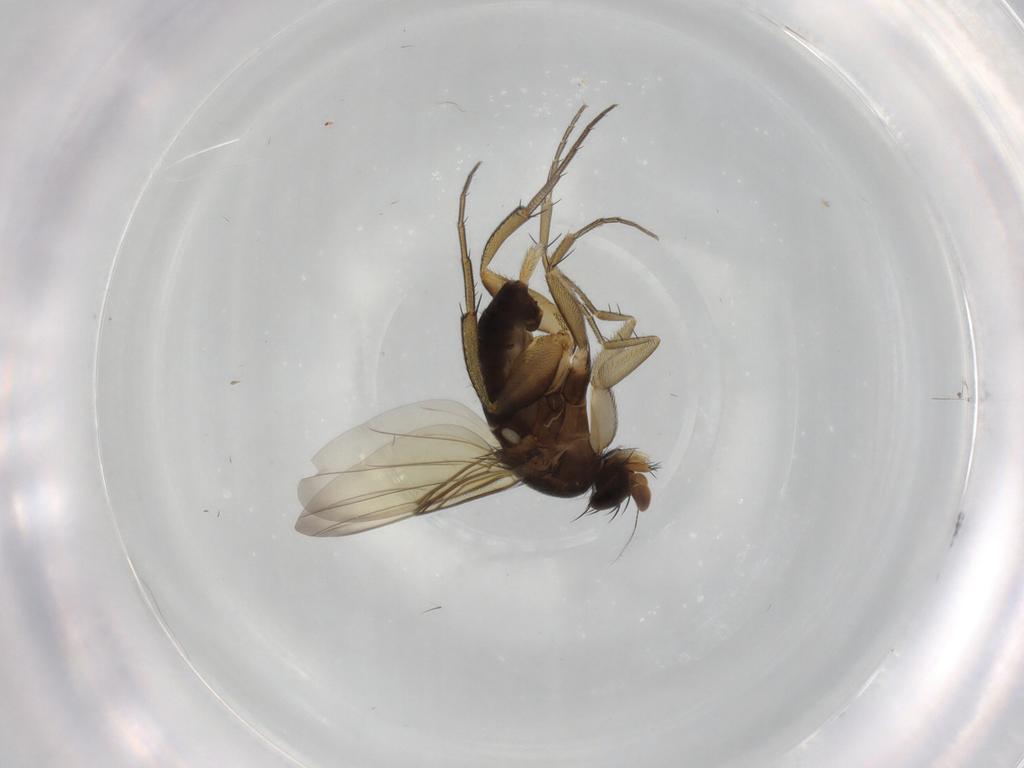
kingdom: Animalia
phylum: Arthropoda
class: Insecta
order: Diptera
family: Phoridae
